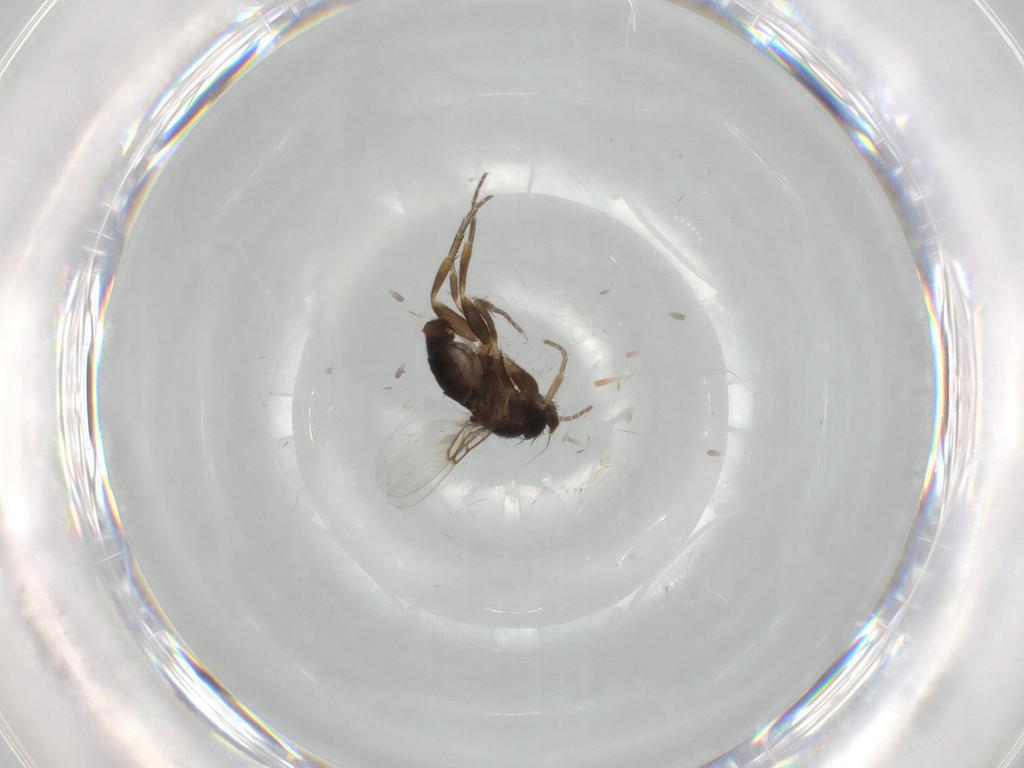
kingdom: Animalia
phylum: Arthropoda
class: Insecta
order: Diptera
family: Phoridae
